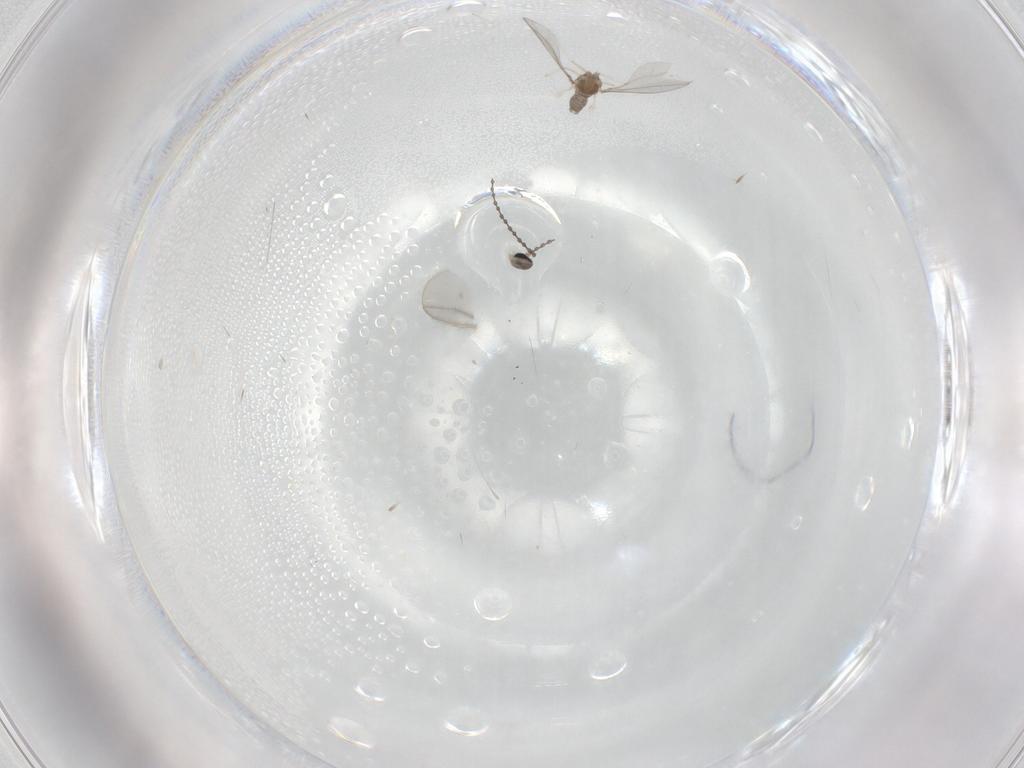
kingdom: Animalia
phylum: Arthropoda
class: Insecta
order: Diptera
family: Cecidomyiidae
